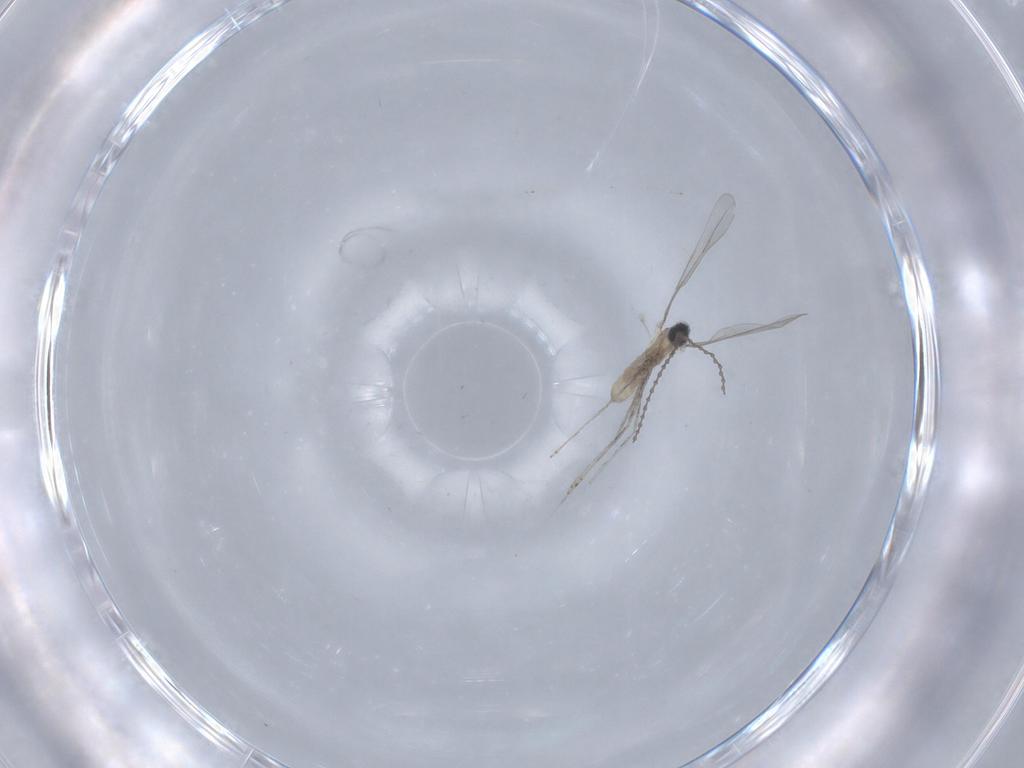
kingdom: Animalia
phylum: Arthropoda
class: Insecta
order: Diptera
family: Cecidomyiidae
